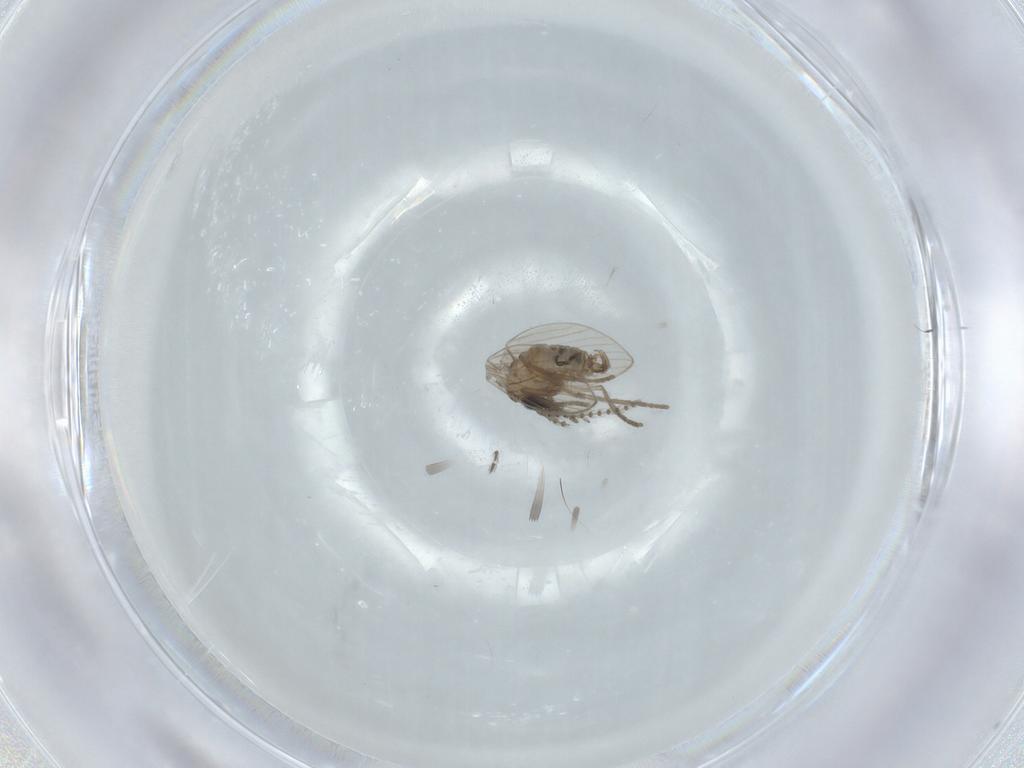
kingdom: Animalia
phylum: Arthropoda
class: Insecta
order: Diptera
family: Psychodidae
